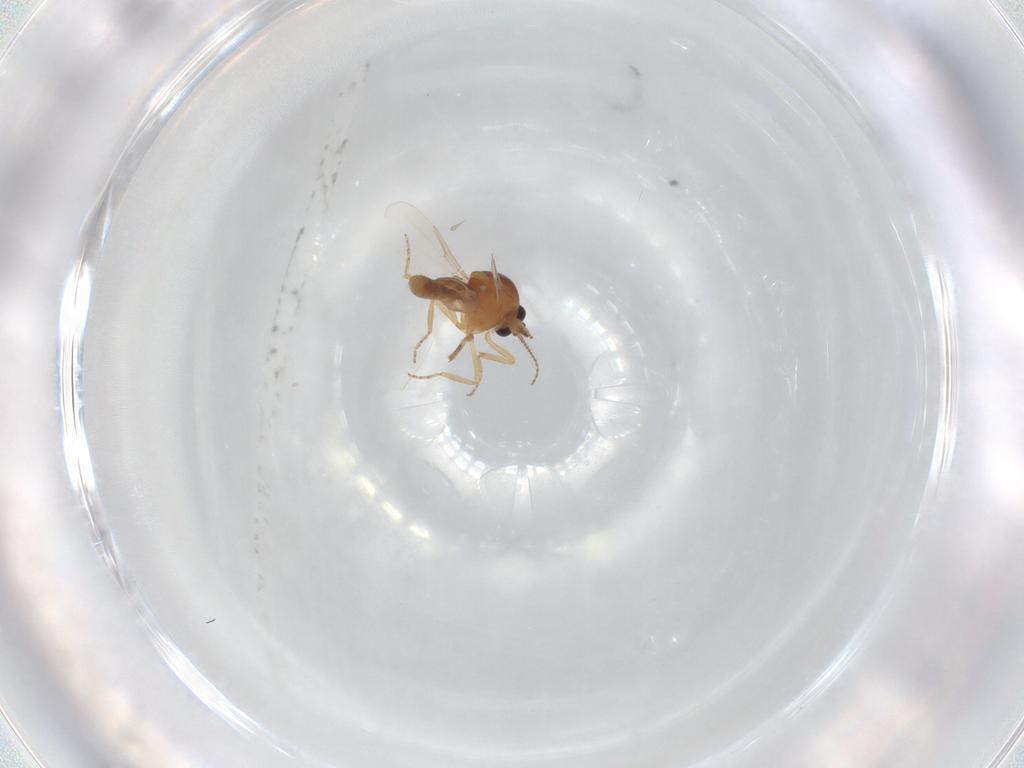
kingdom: Animalia
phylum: Arthropoda
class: Insecta
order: Diptera
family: Ceratopogonidae
